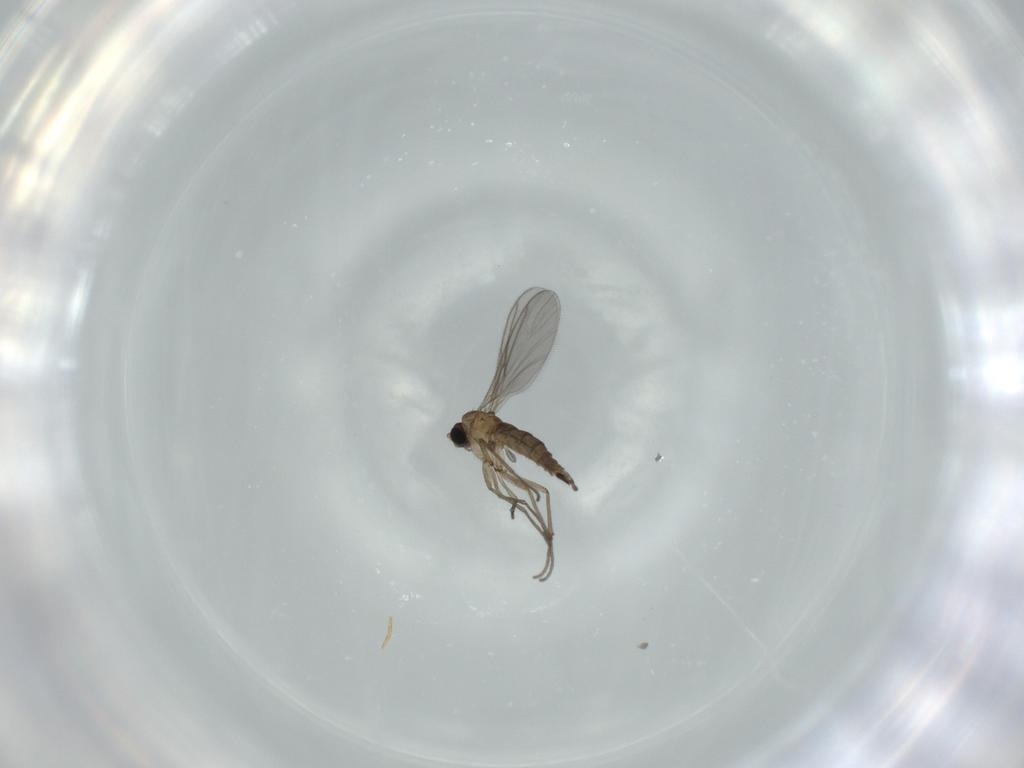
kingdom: Animalia
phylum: Arthropoda
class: Insecta
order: Diptera
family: Sciaridae
